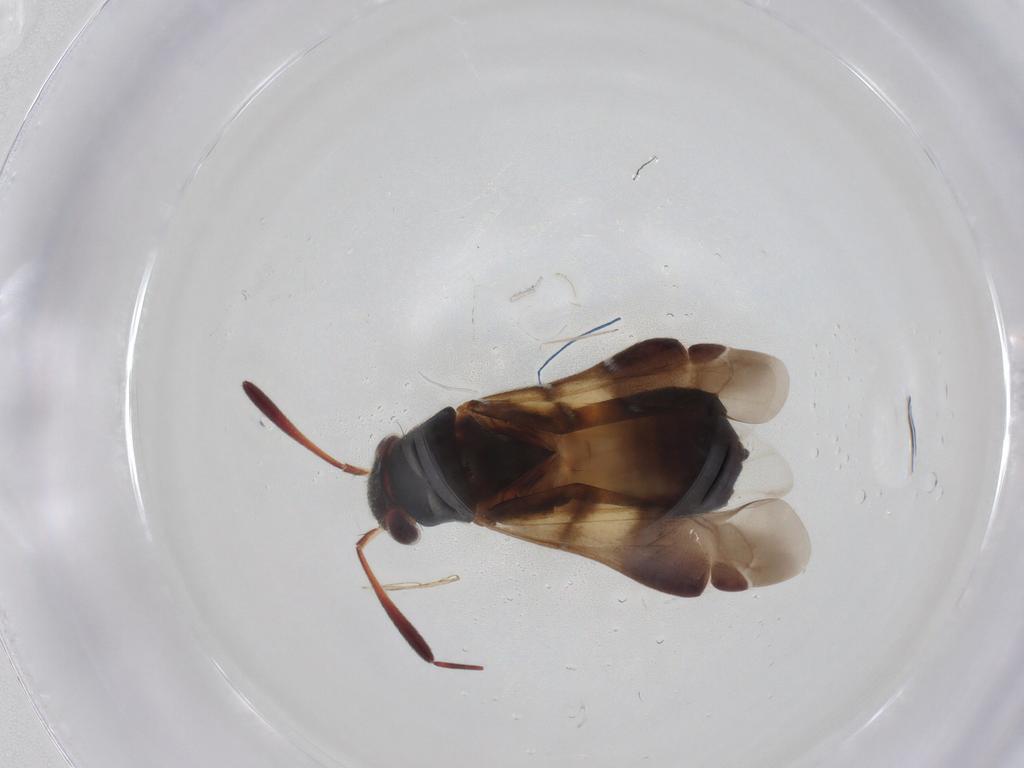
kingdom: Animalia
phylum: Arthropoda
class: Insecta
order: Hemiptera
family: Miridae
